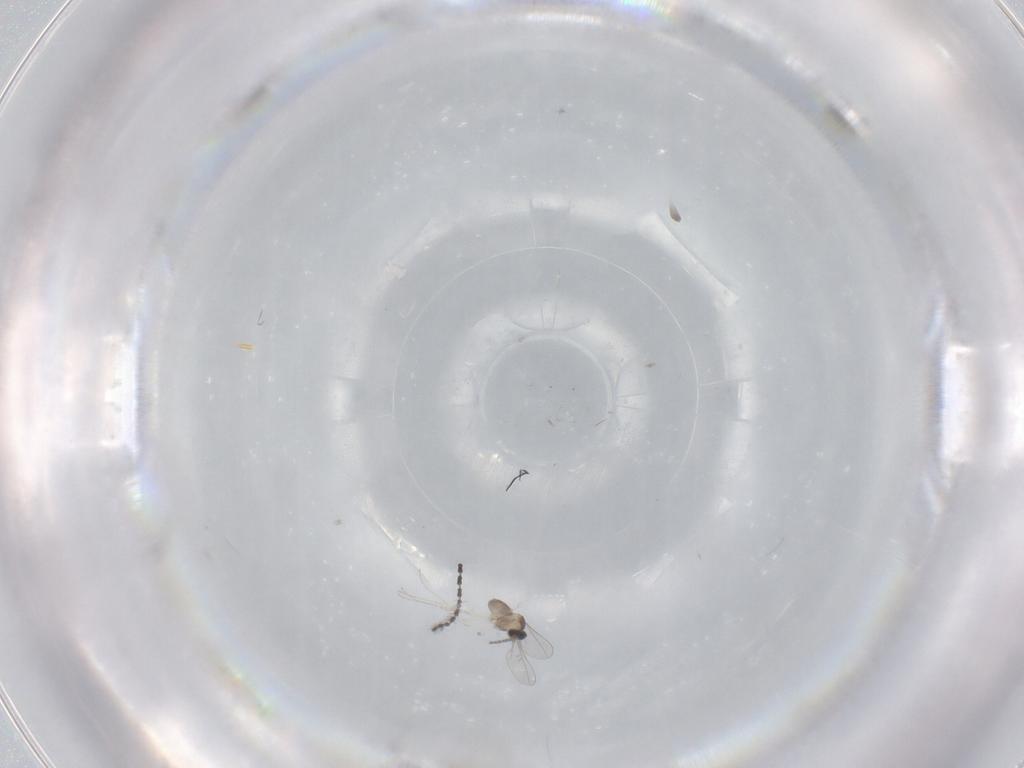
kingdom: Animalia
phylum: Arthropoda
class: Insecta
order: Diptera
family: Cecidomyiidae
